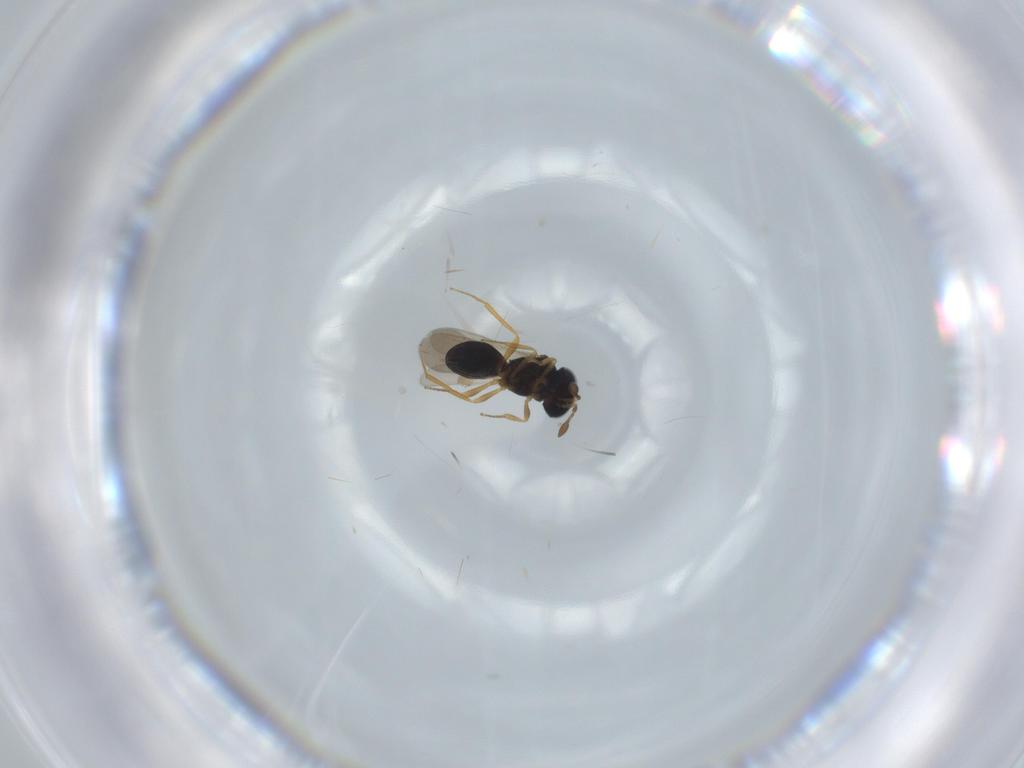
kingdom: Animalia
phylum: Arthropoda
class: Insecta
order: Hymenoptera
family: Scelionidae
